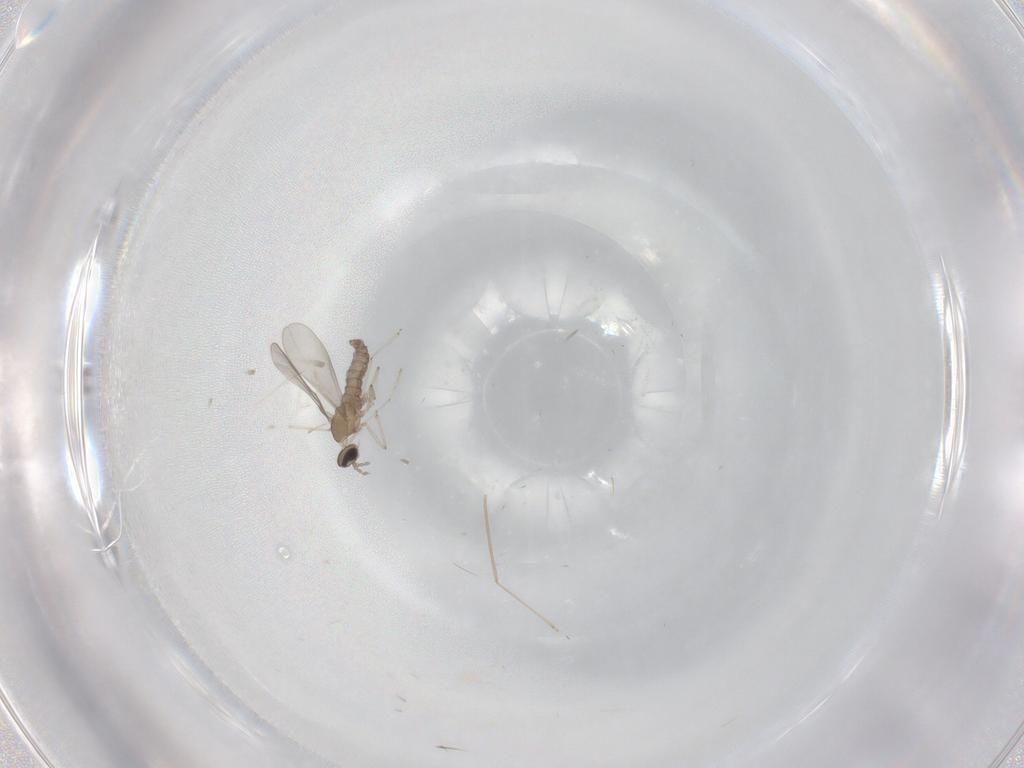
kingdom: Animalia
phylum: Arthropoda
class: Insecta
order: Diptera
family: Cecidomyiidae
